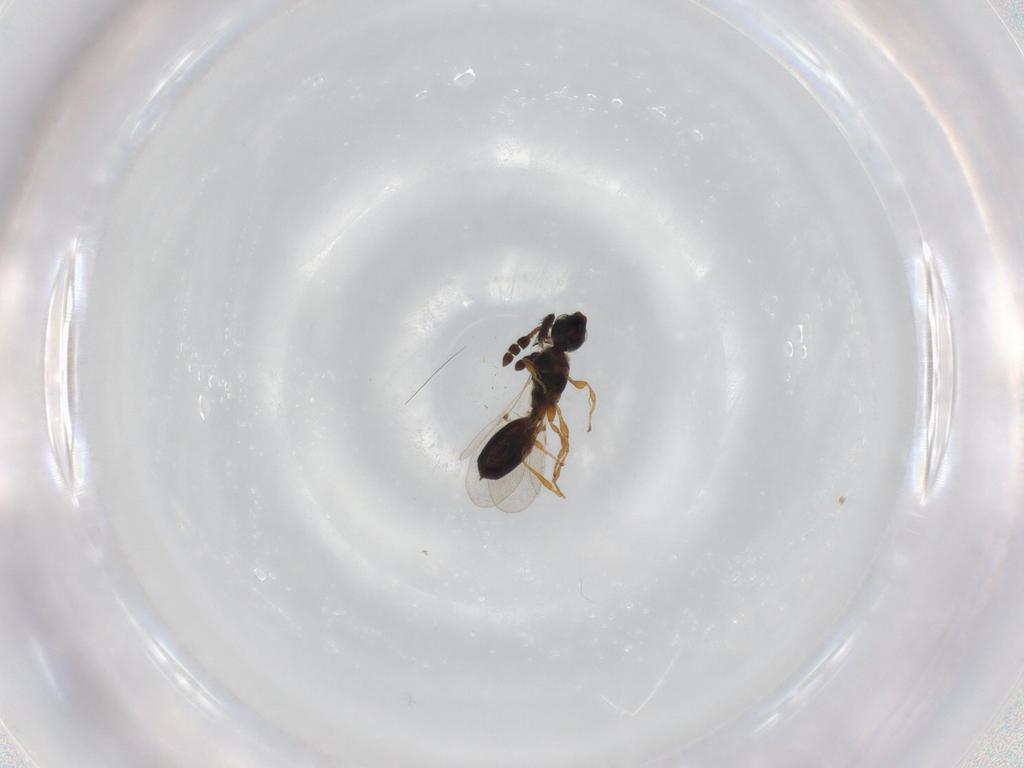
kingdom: Animalia
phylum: Arthropoda
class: Insecta
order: Hymenoptera
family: Diapriidae
